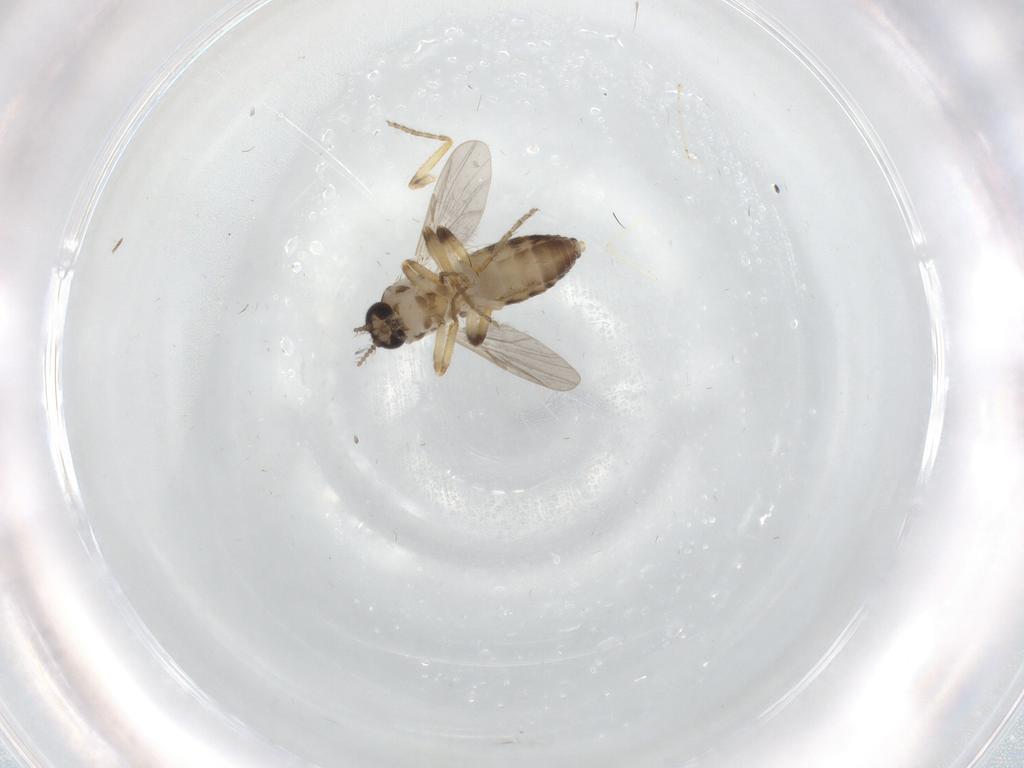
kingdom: Animalia
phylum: Arthropoda
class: Insecta
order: Diptera
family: Ceratopogonidae
